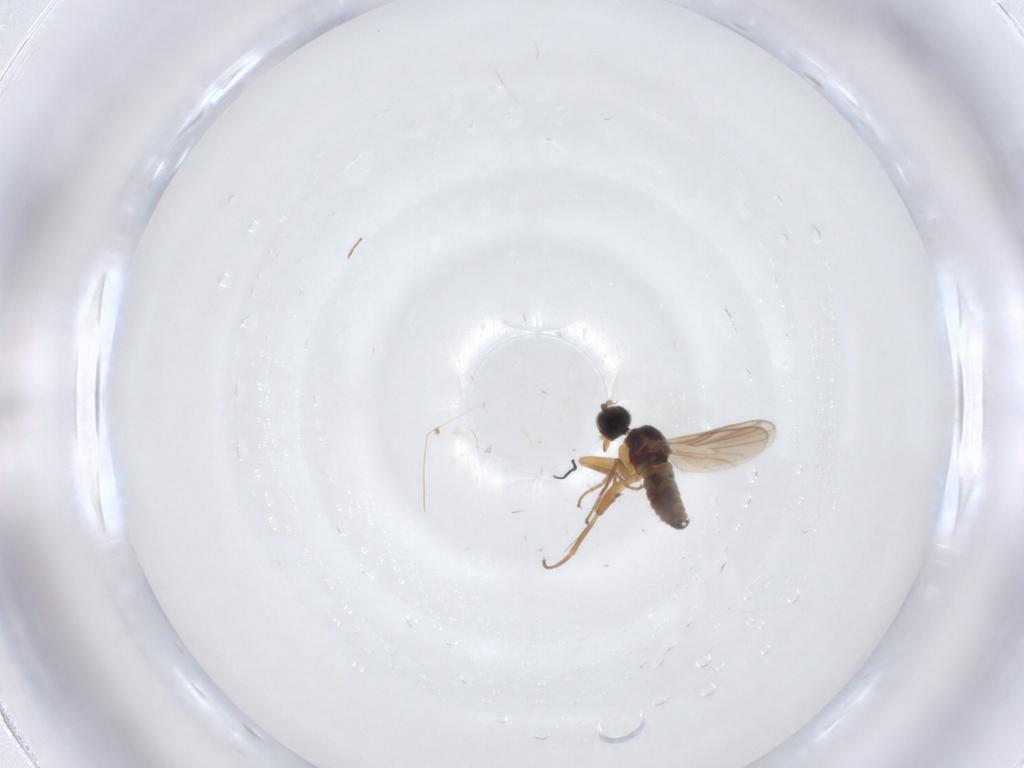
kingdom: Animalia
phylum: Arthropoda
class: Insecta
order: Diptera
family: Hybotidae
